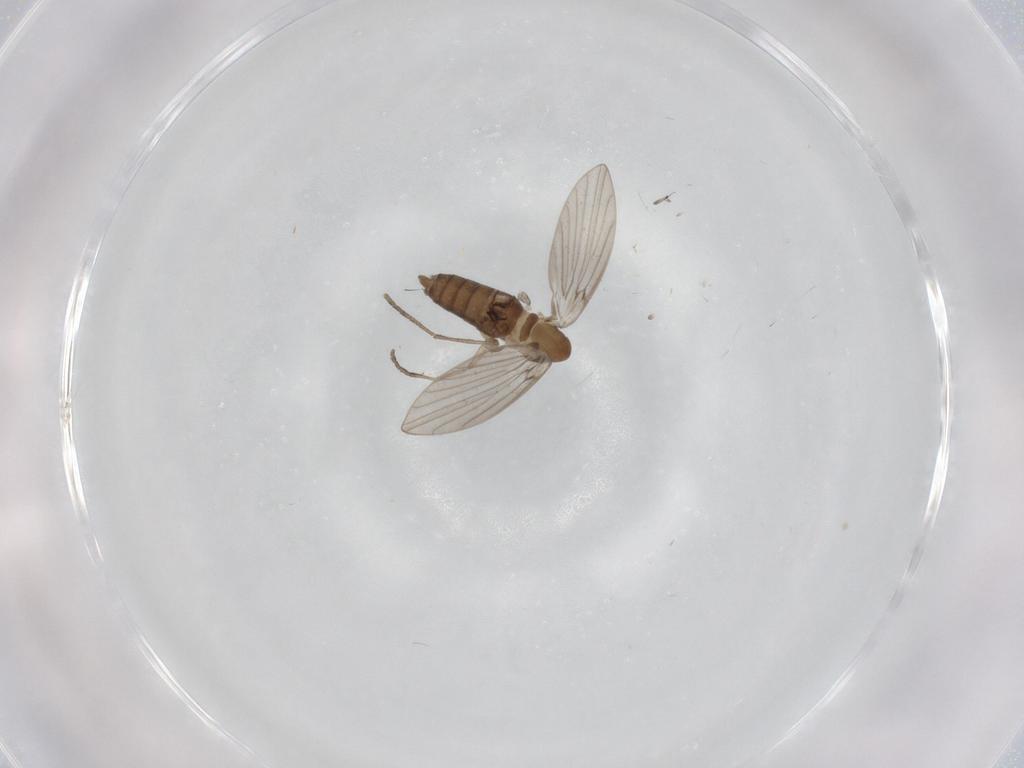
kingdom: Animalia
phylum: Arthropoda
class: Insecta
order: Diptera
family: Psychodidae
